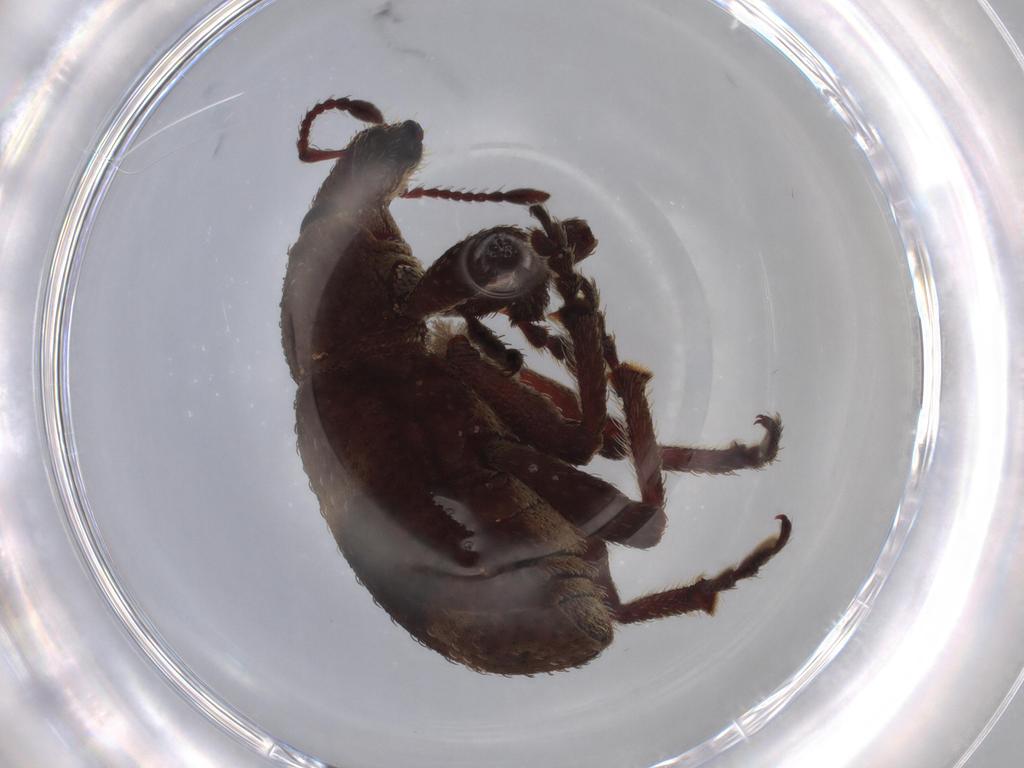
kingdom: Animalia
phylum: Arthropoda
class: Insecta
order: Coleoptera
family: Curculionidae
